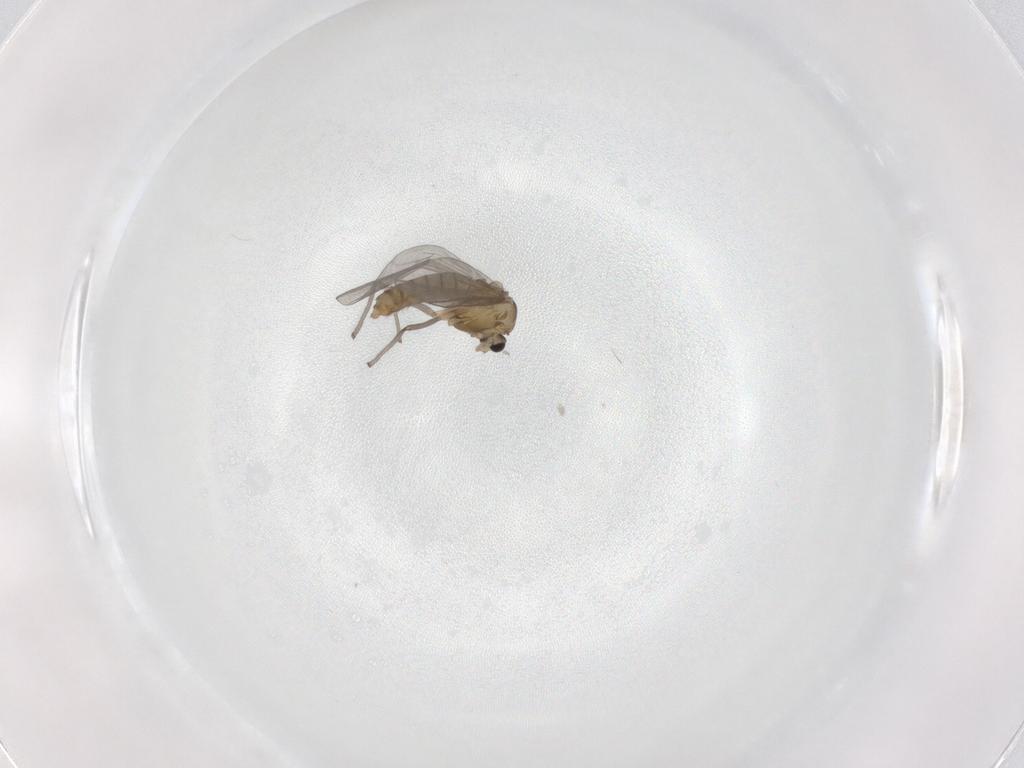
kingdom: Animalia
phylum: Arthropoda
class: Insecta
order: Diptera
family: Chironomidae
